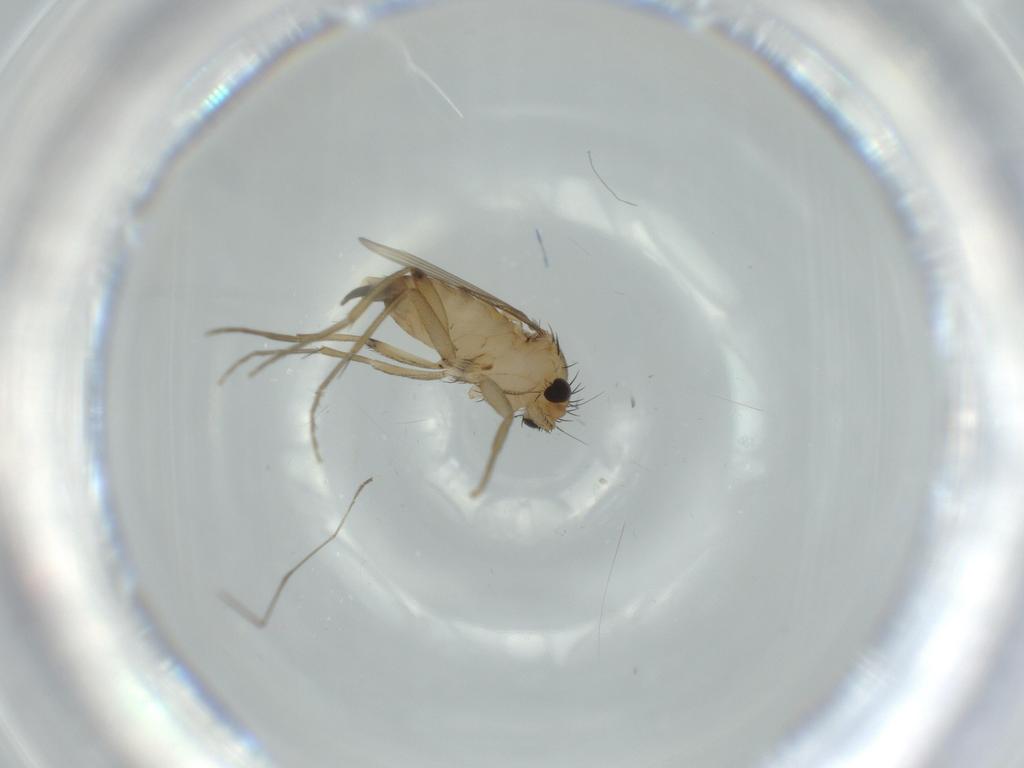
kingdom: Animalia
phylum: Arthropoda
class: Insecta
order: Diptera
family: Phoridae
